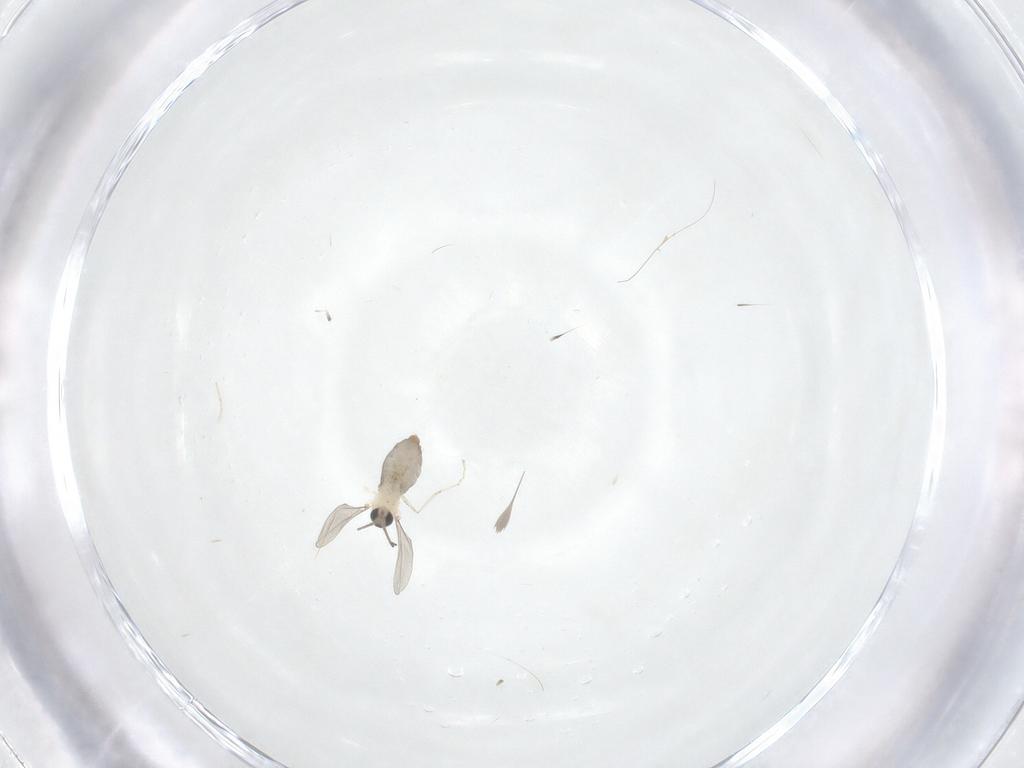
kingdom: Animalia
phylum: Arthropoda
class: Insecta
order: Diptera
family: Cecidomyiidae
